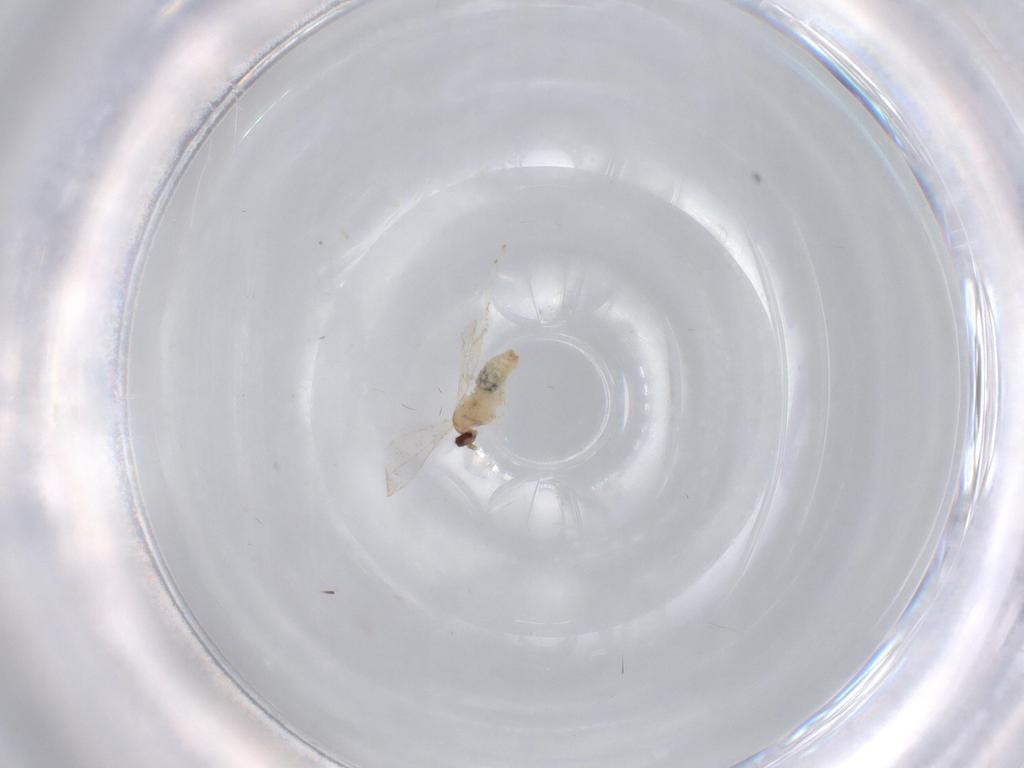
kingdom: Animalia
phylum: Arthropoda
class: Insecta
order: Diptera
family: Cecidomyiidae
